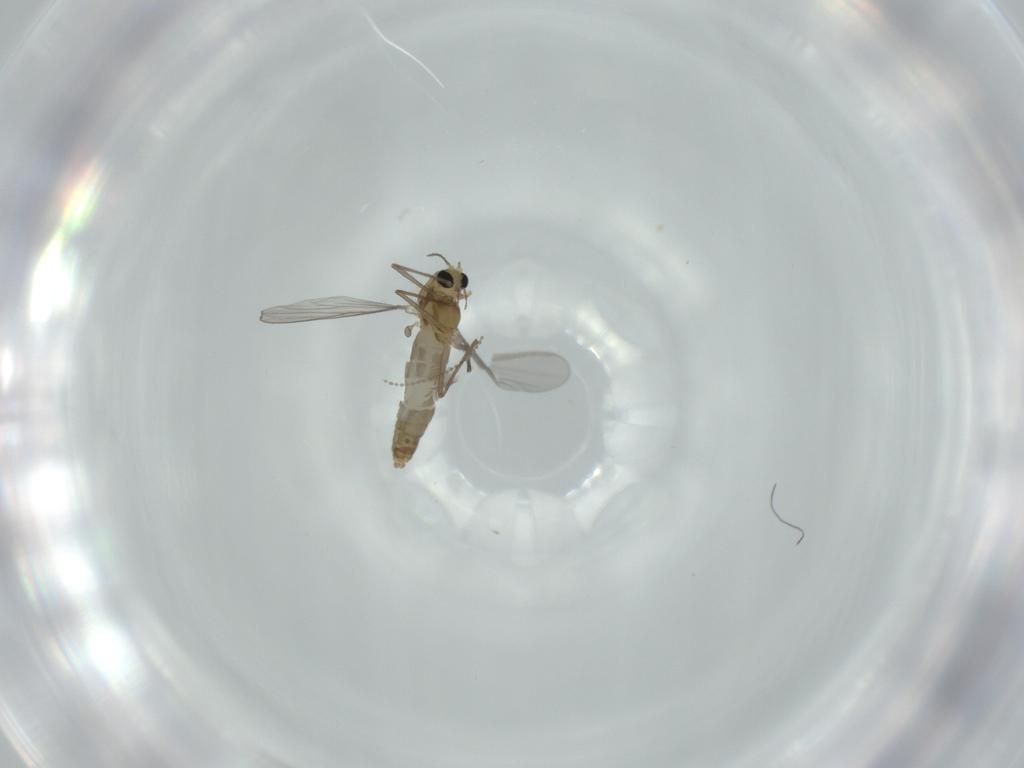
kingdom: Animalia
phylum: Arthropoda
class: Insecta
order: Diptera
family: Cecidomyiidae
